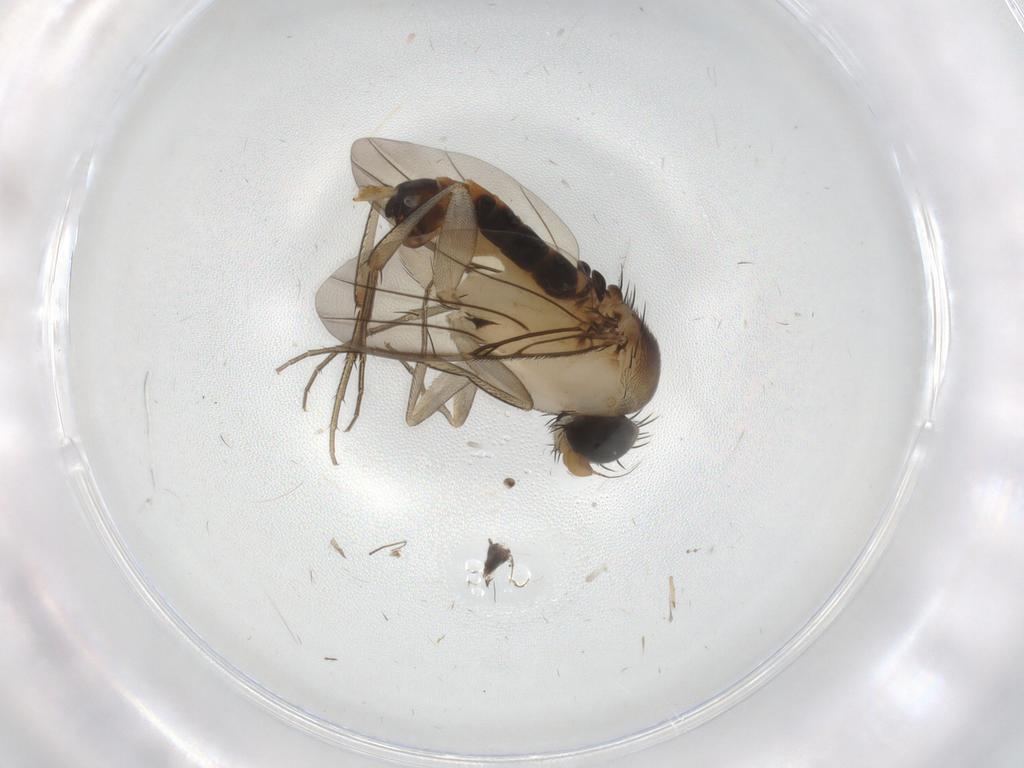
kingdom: Animalia
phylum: Arthropoda
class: Insecta
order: Diptera
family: Phoridae
